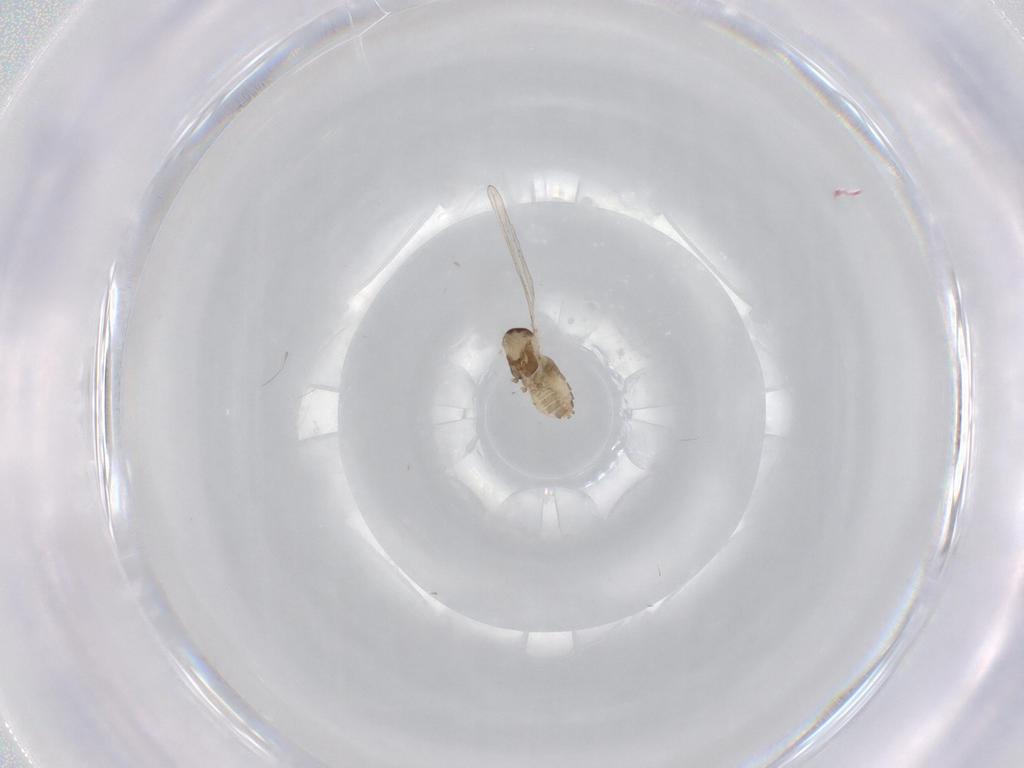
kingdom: Animalia
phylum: Arthropoda
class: Insecta
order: Diptera
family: Cecidomyiidae
